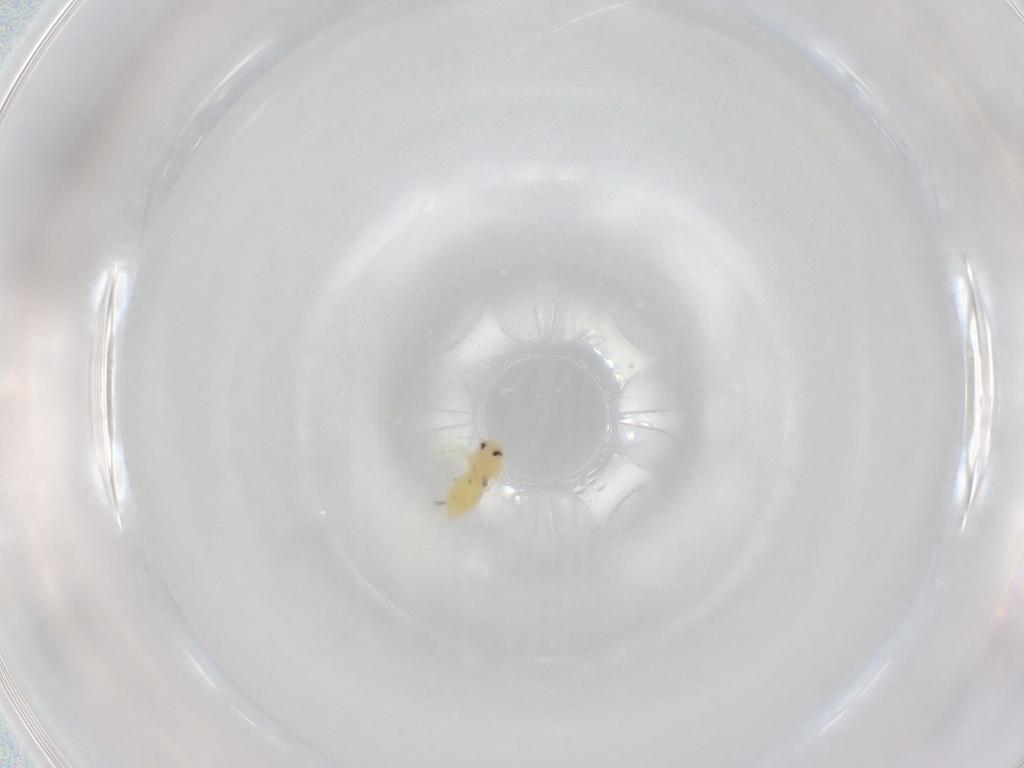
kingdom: Animalia
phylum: Arthropoda
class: Insecta
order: Hemiptera
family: Aleyrodidae
